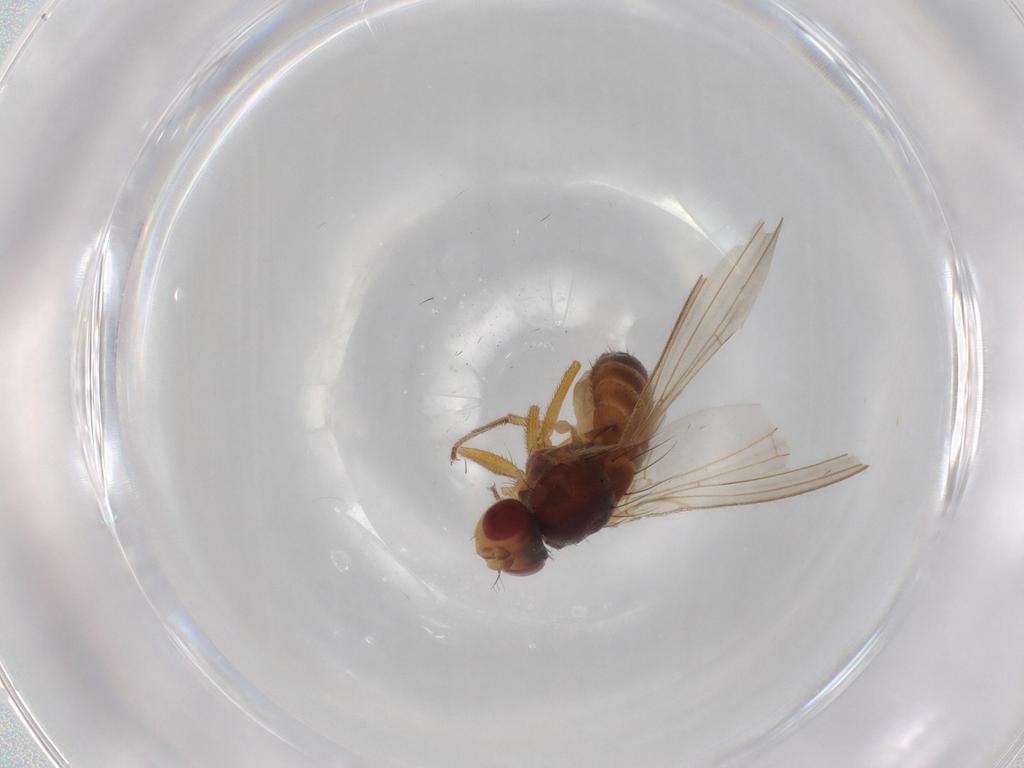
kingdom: Animalia
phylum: Arthropoda
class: Insecta
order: Diptera
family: Drosophilidae
